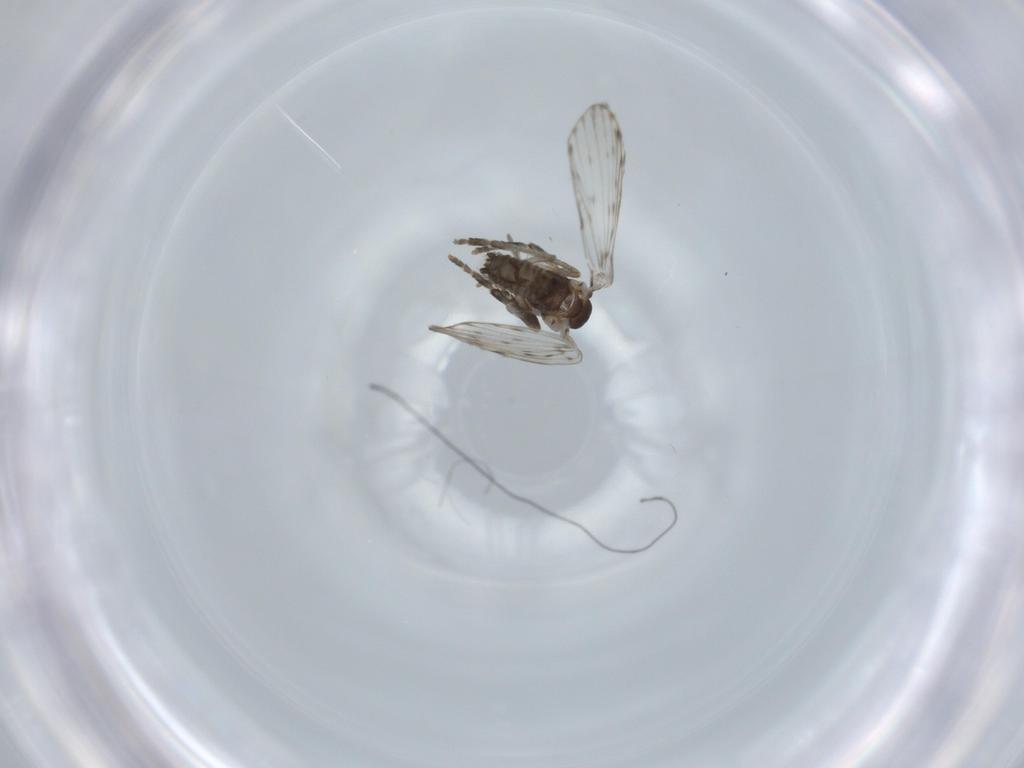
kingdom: Animalia
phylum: Arthropoda
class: Insecta
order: Diptera
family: Psychodidae
